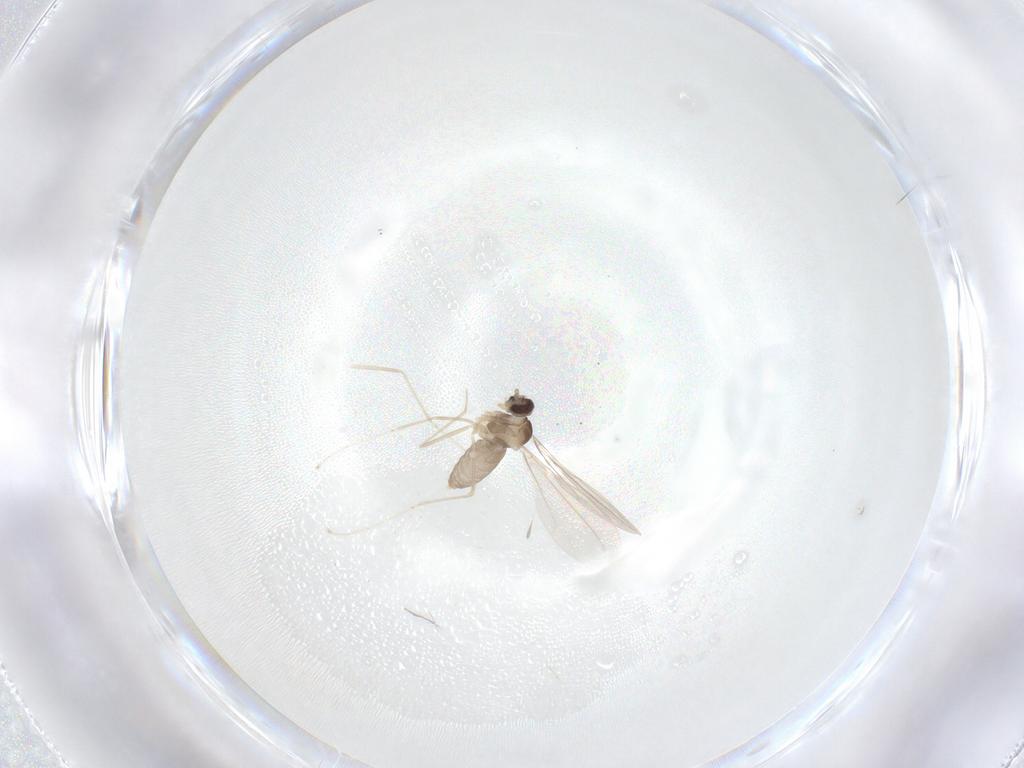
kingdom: Animalia
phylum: Arthropoda
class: Insecta
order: Diptera
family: Cecidomyiidae
